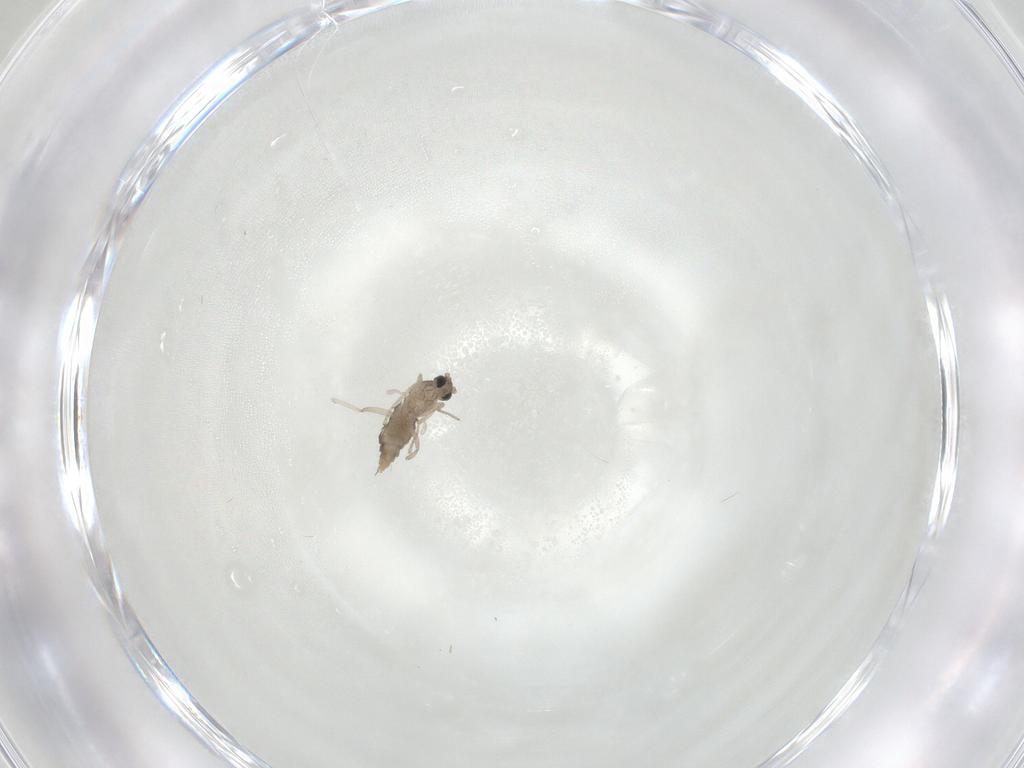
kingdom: Animalia
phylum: Arthropoda
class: Insecta
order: Diptera
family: Cecidomyiidae
